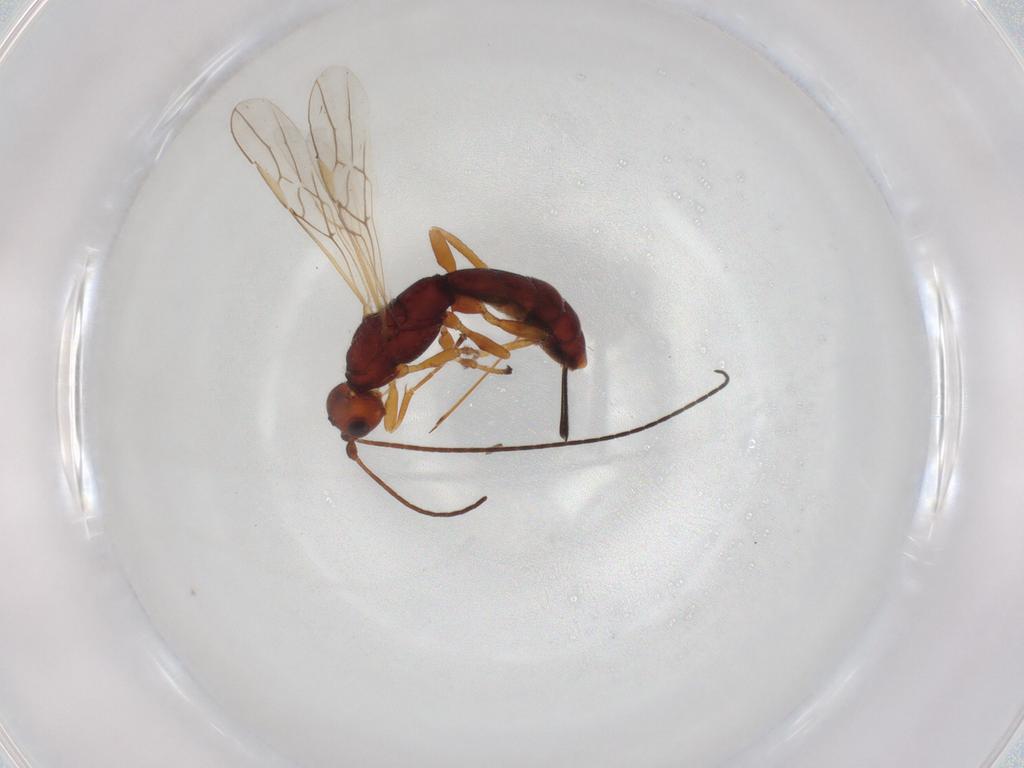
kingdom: Animalia
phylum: Arthropoda
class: Insecta
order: Hymenoptera
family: Braconidae
